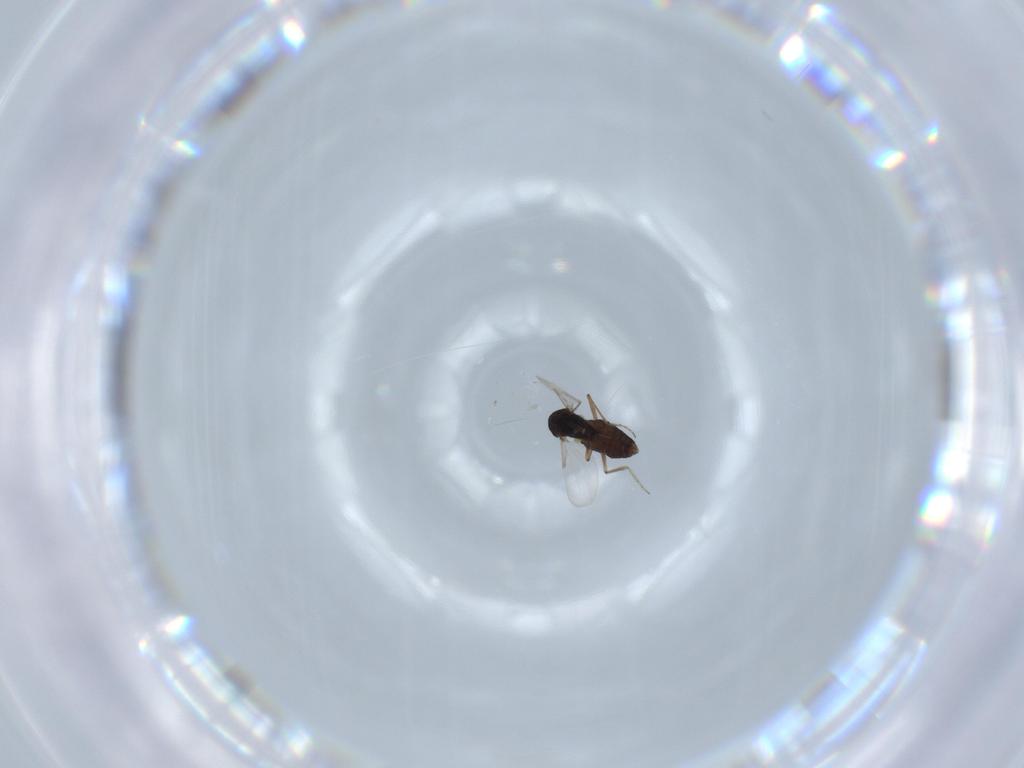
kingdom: Animalia
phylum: Arthropoda
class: Insecta
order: Diptera
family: Ceratopogonidae
